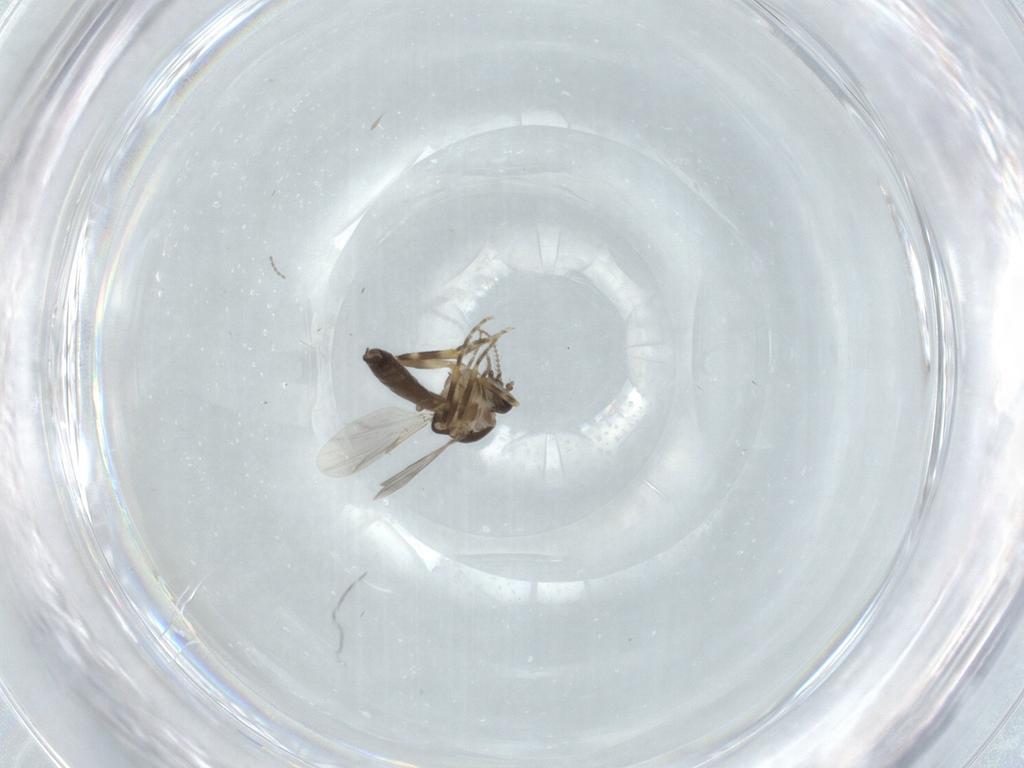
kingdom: Animalia
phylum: Arthropoda
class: Insecta
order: Diptera
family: Ceratopogonidae
